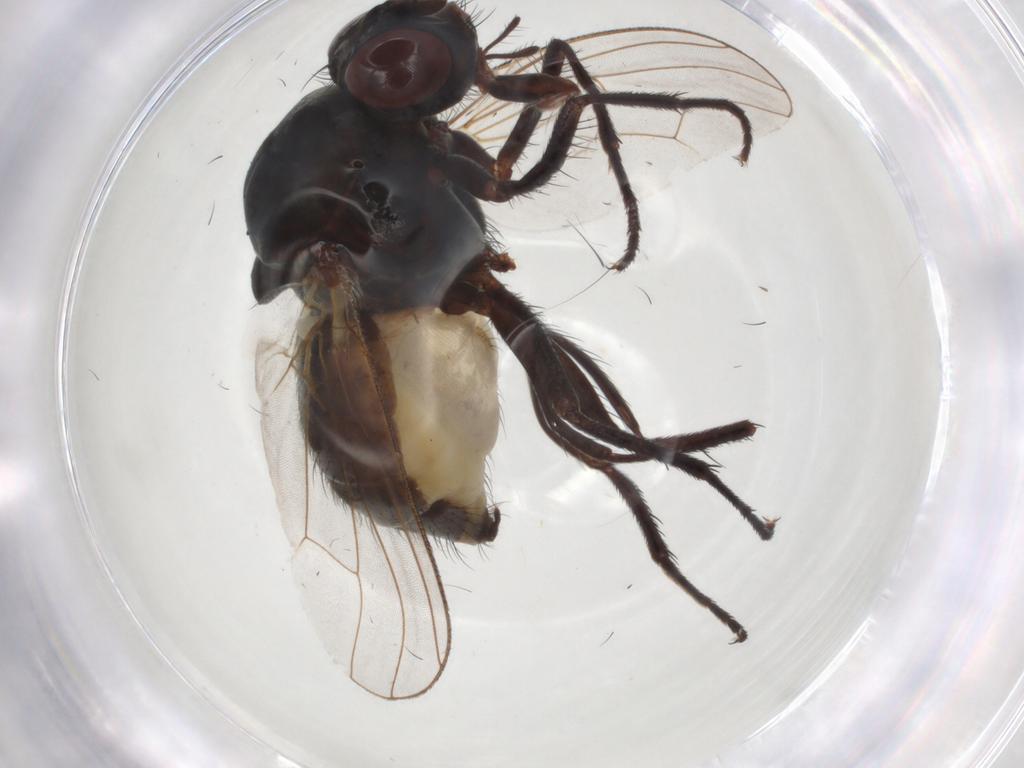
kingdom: Animalia
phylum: Arthropoda
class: Insecta
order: Diptera
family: Anthomyiidae
